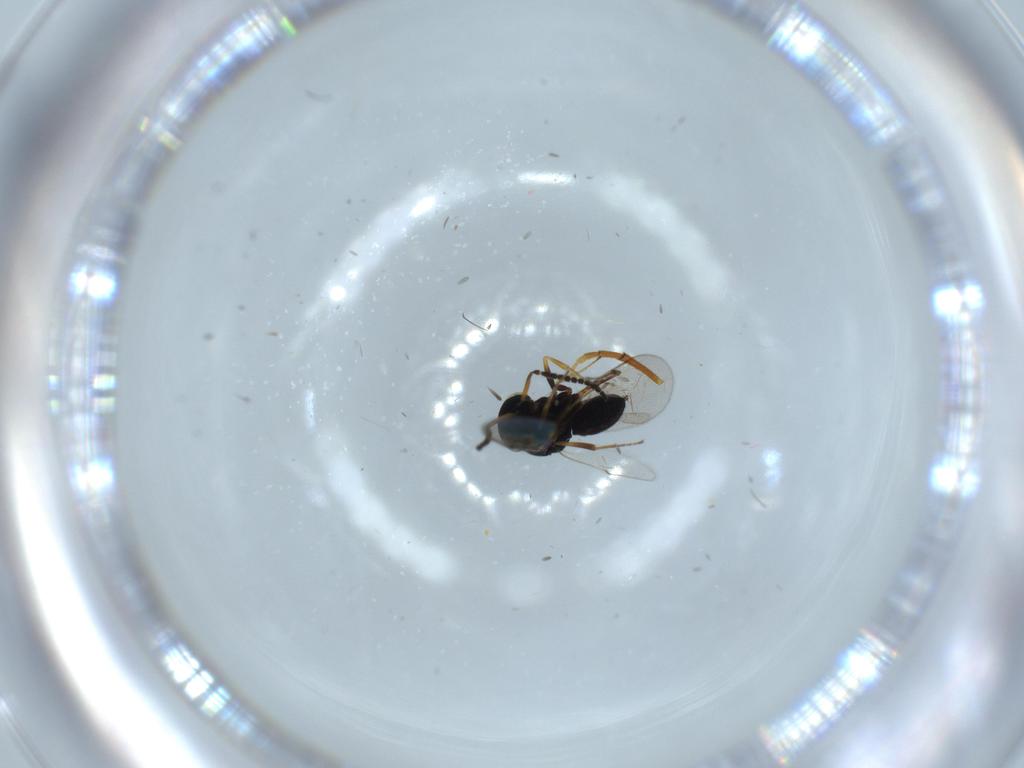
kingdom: Animalia
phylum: Arthropoda
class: Insecta
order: Hymenoptera
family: Scelionidae
